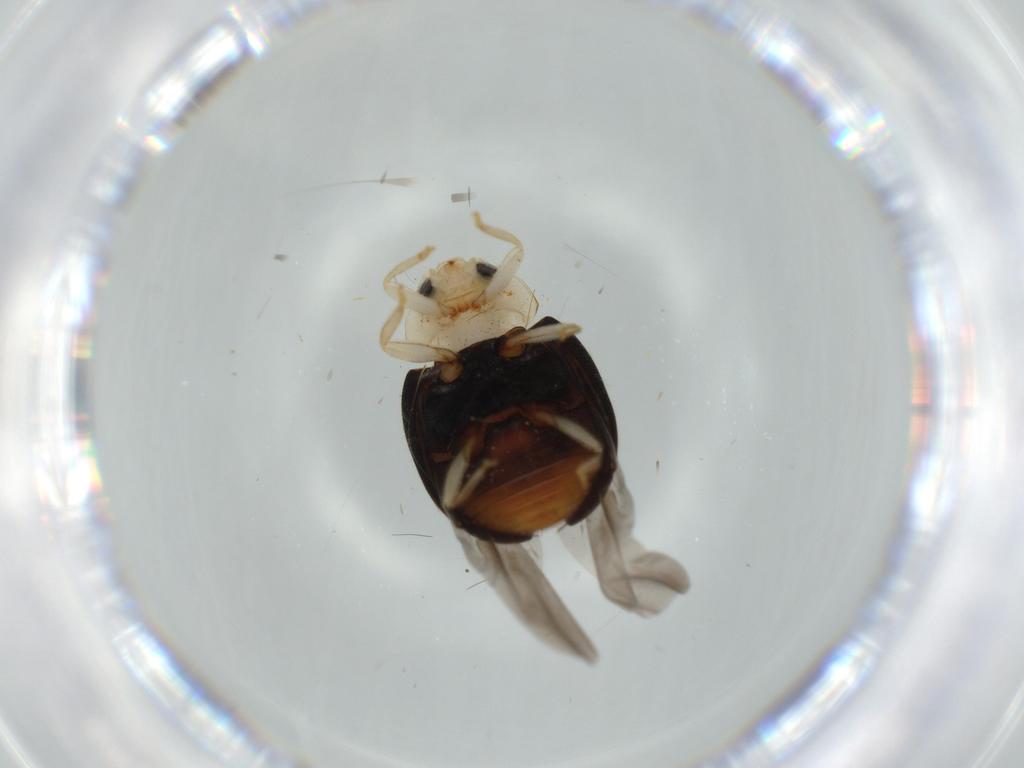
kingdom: Animalia
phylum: Arthropoda
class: Insecta
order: Coleoptera
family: Coccinellidae
